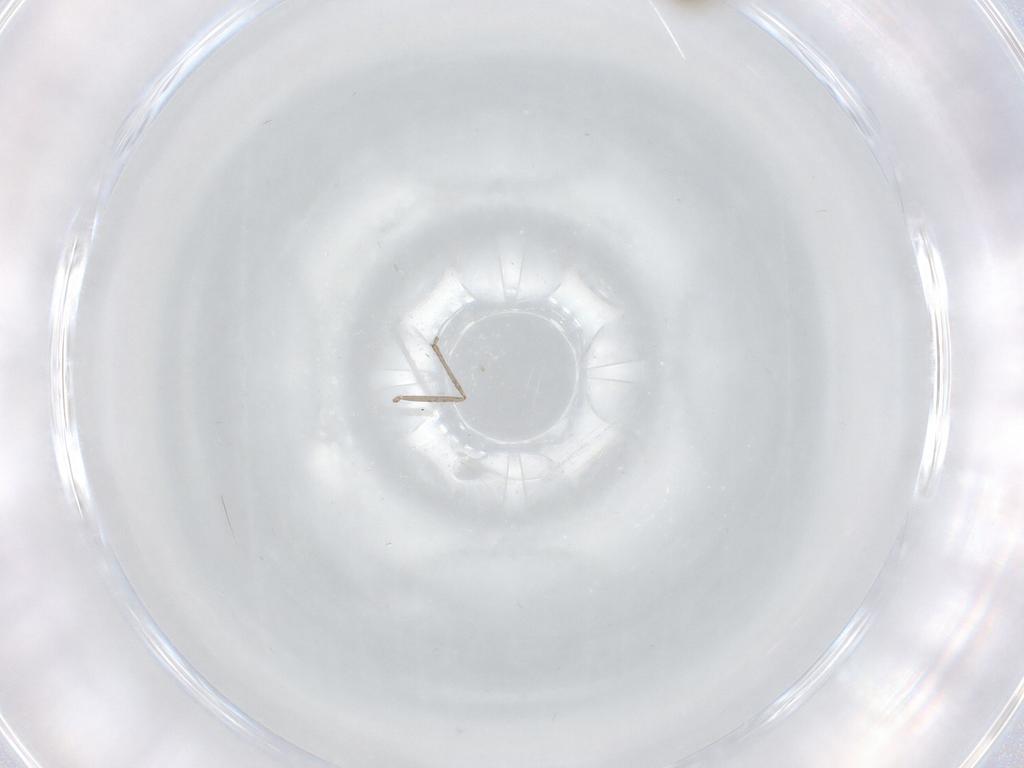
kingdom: Animalia
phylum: Arthropoda
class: Insecta
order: Diptera
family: Cecidomyiidae
